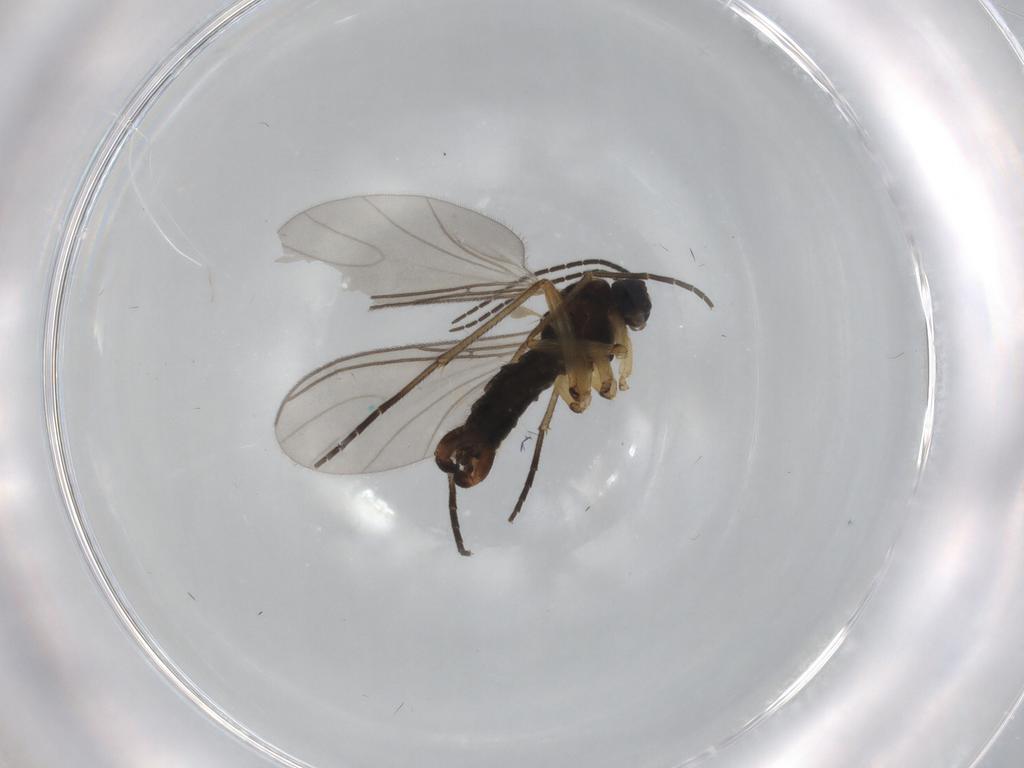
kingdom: Animalia
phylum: Arthropoda
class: Insecta
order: Diptera
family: Sciaridae
